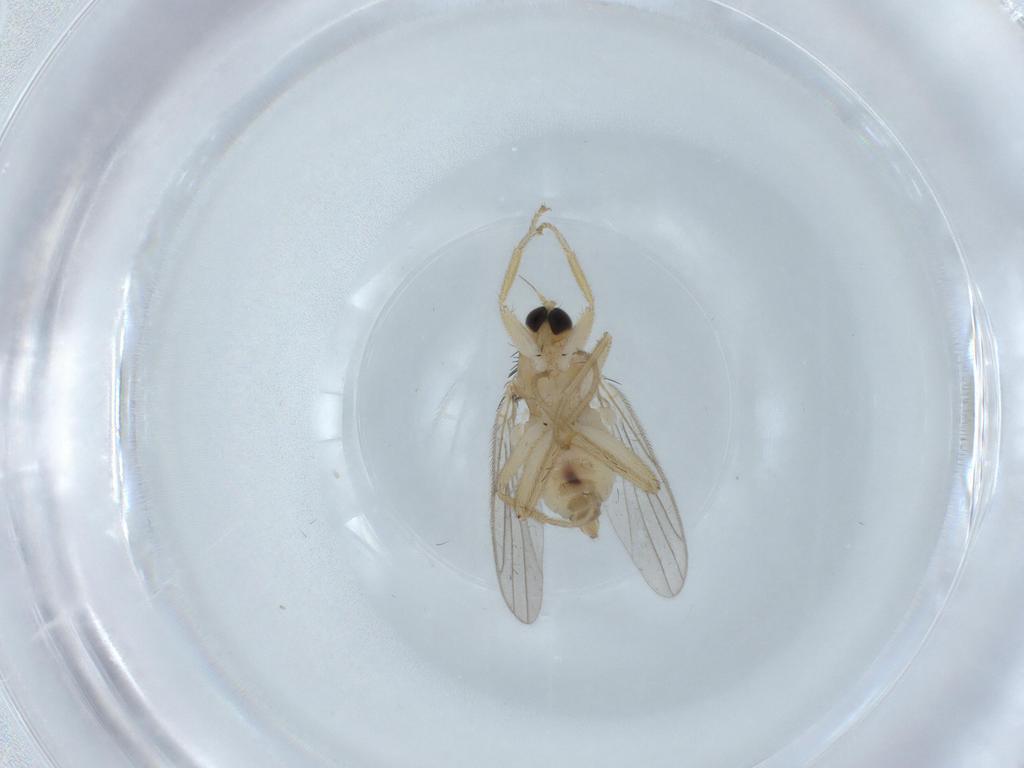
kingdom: Animalia
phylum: Arthropoda
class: Insecta
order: Diptera
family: Hybotidae
